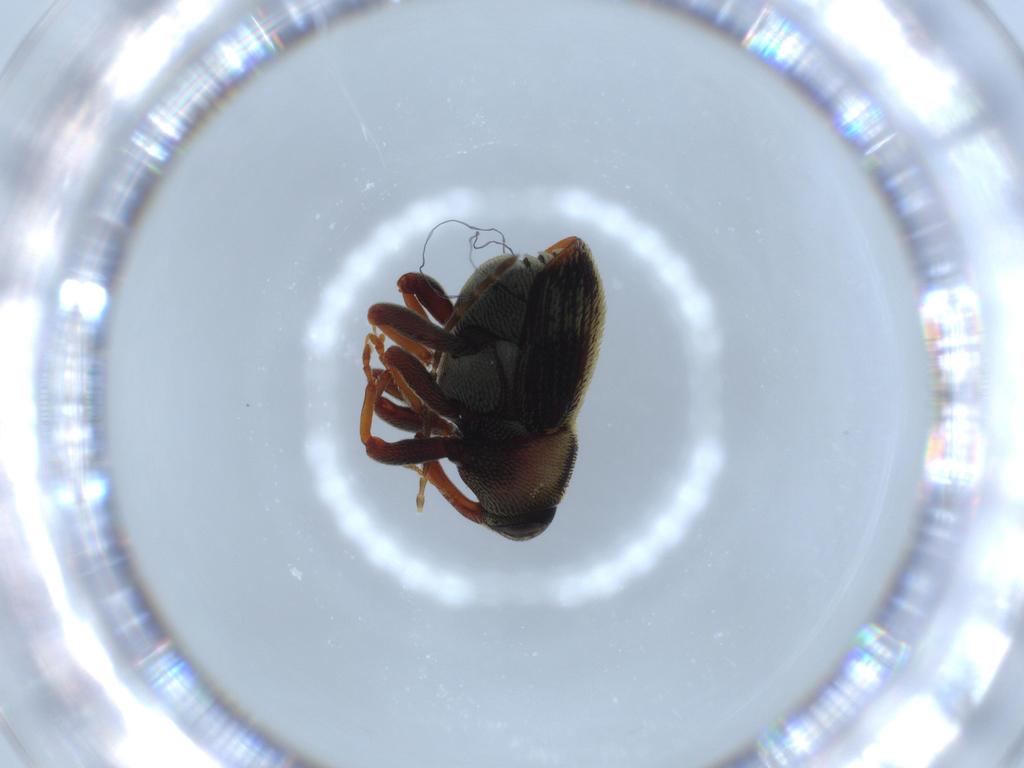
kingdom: Animalia
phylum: Arthropoda
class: Insecta
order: Coleoptera
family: Chrysomelidae
